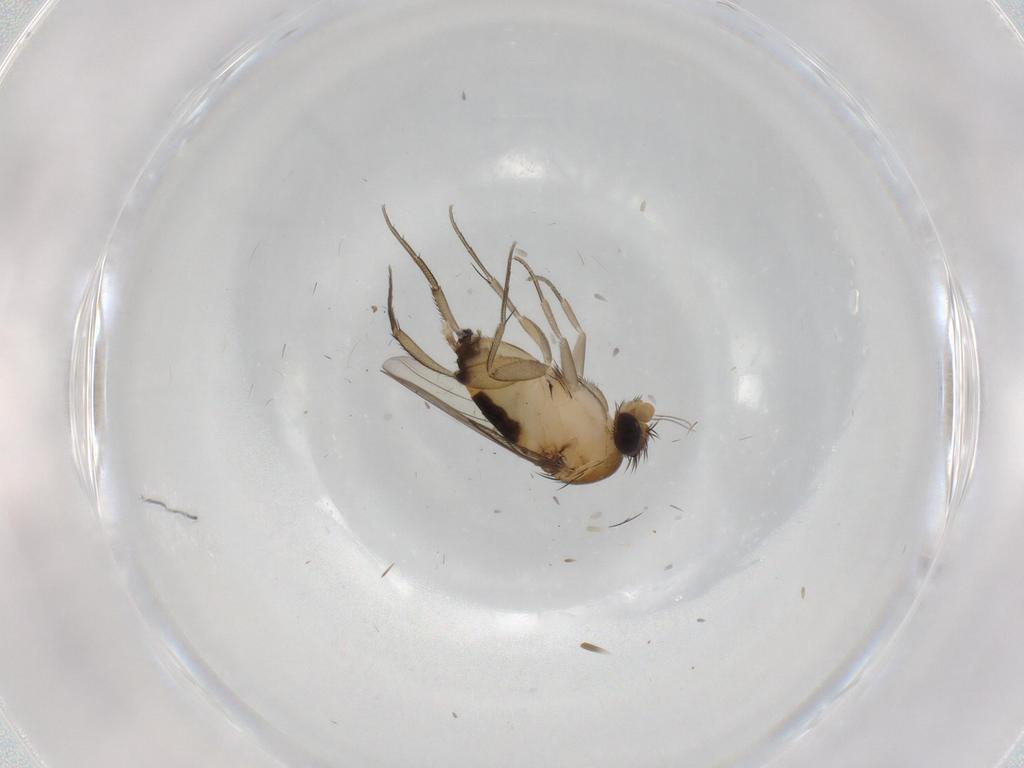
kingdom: Animalia
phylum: Arthropoda
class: Insecta
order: Diptera
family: Phoridae
